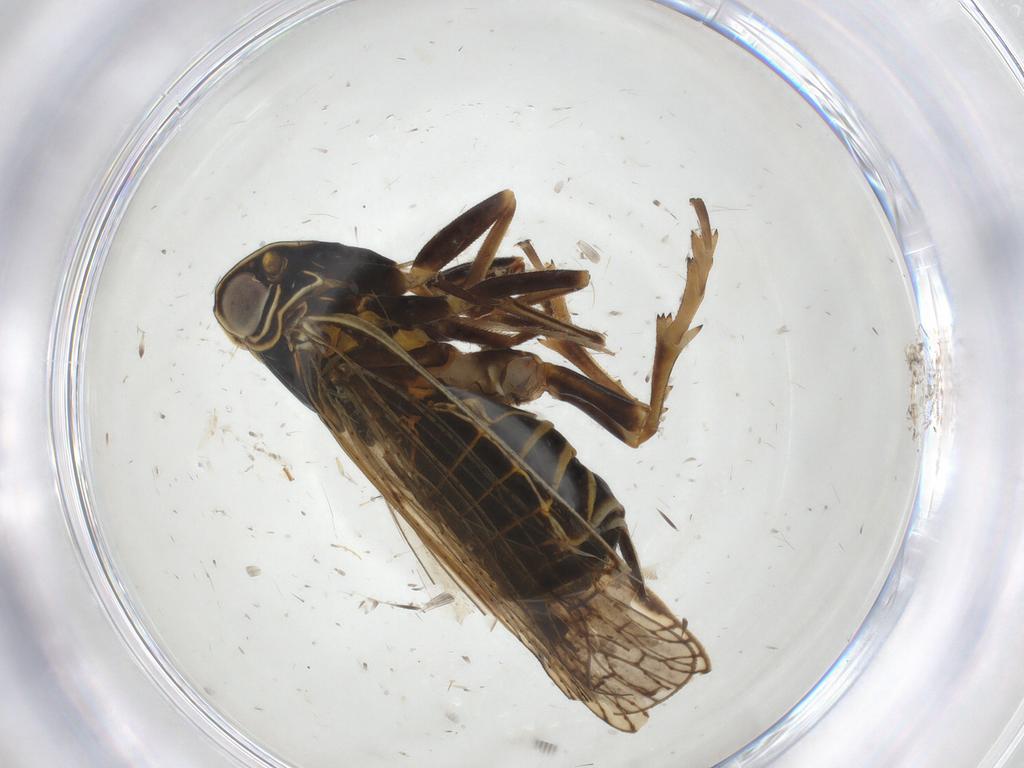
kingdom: Animalia
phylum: Arthropoda
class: Insecta
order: Hemiptera
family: Cixiidae
